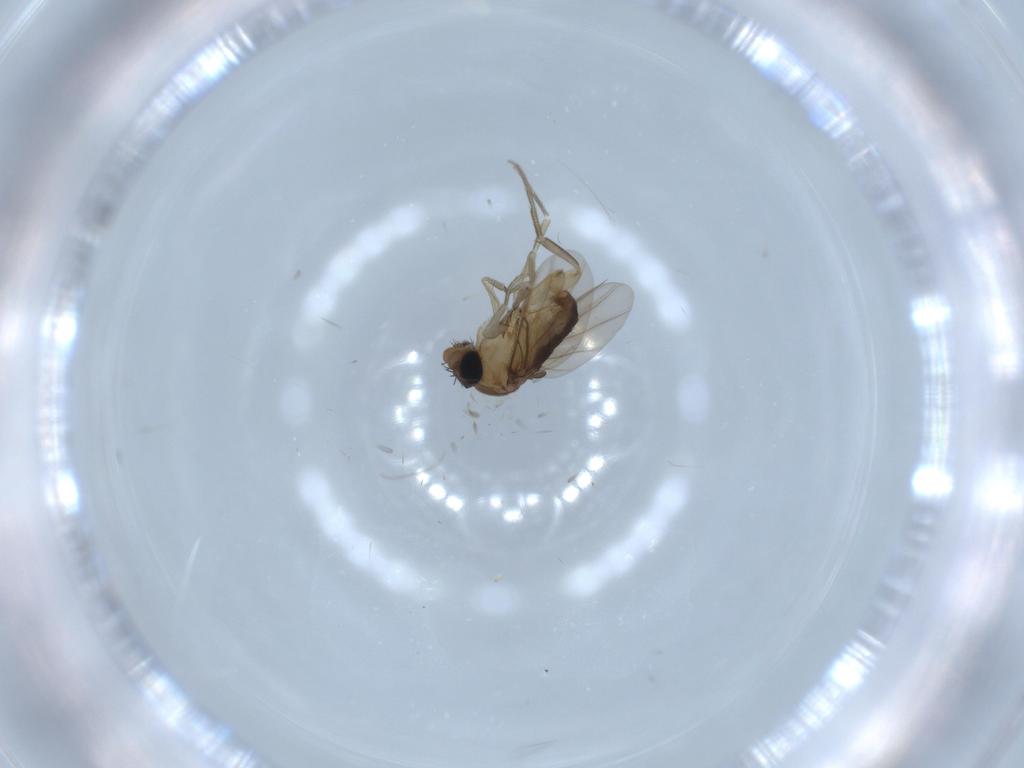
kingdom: Animalia
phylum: Arthropoda
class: Insecta
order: Diptera
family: Phoridae
